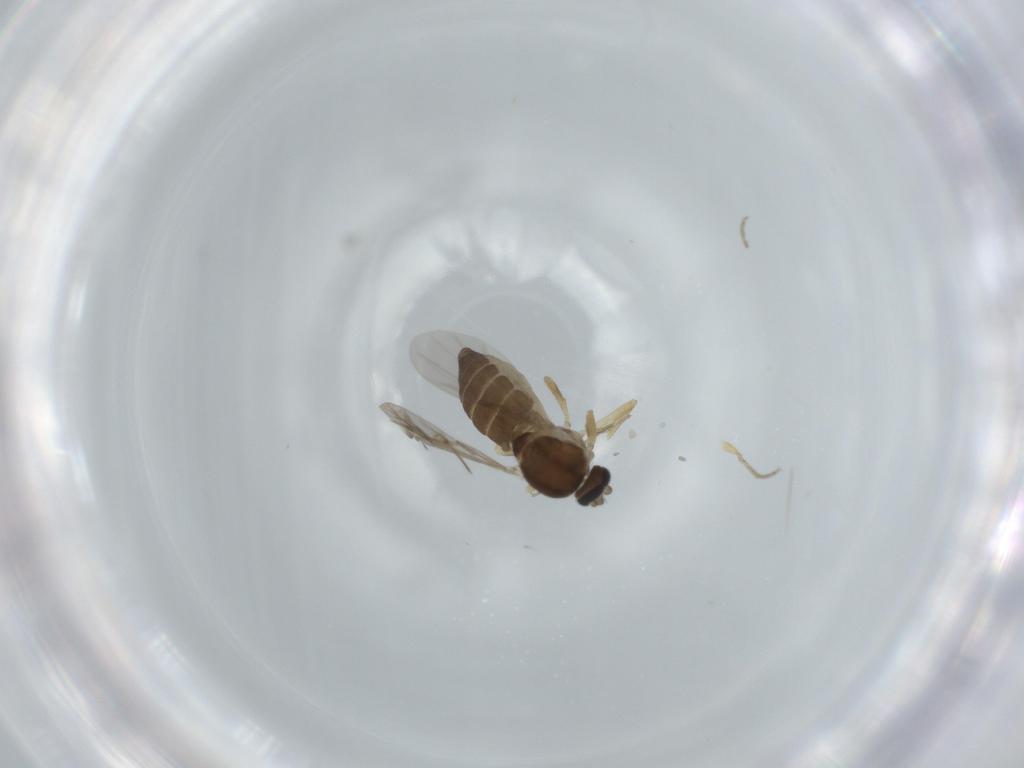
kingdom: Animalia
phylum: Arthropoda
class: Insecta
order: Diptera
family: Ceratopogonidae
